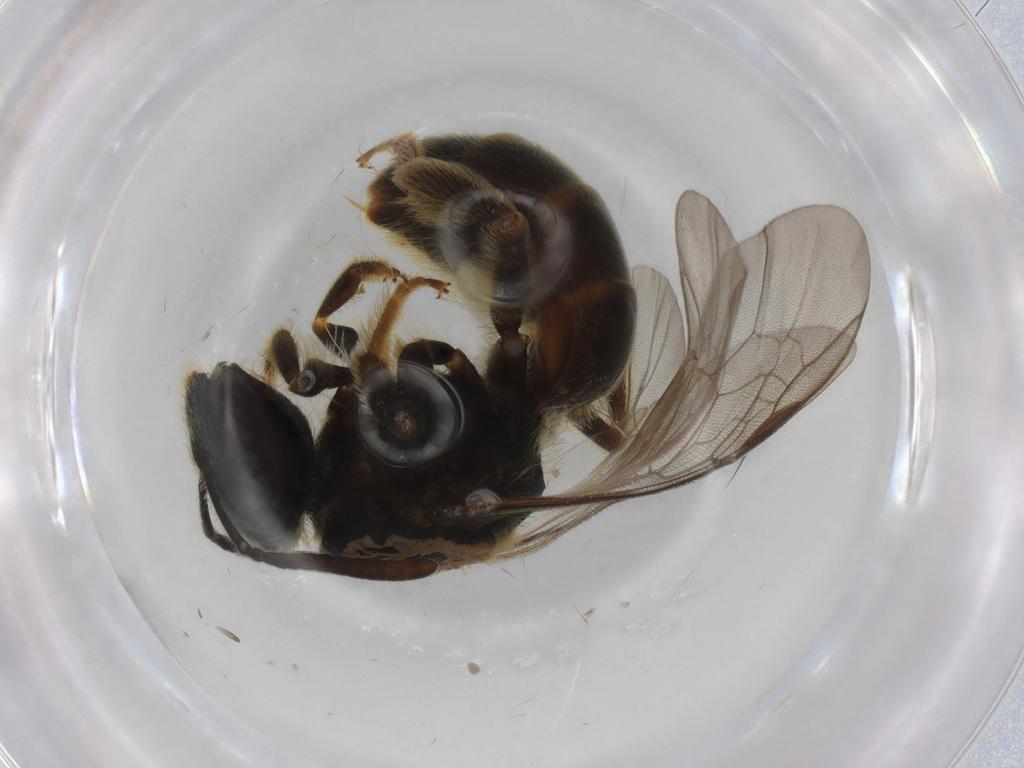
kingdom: Animalia
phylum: Arthropoda
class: Insecta
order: Hymenoptera
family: Halictidae
